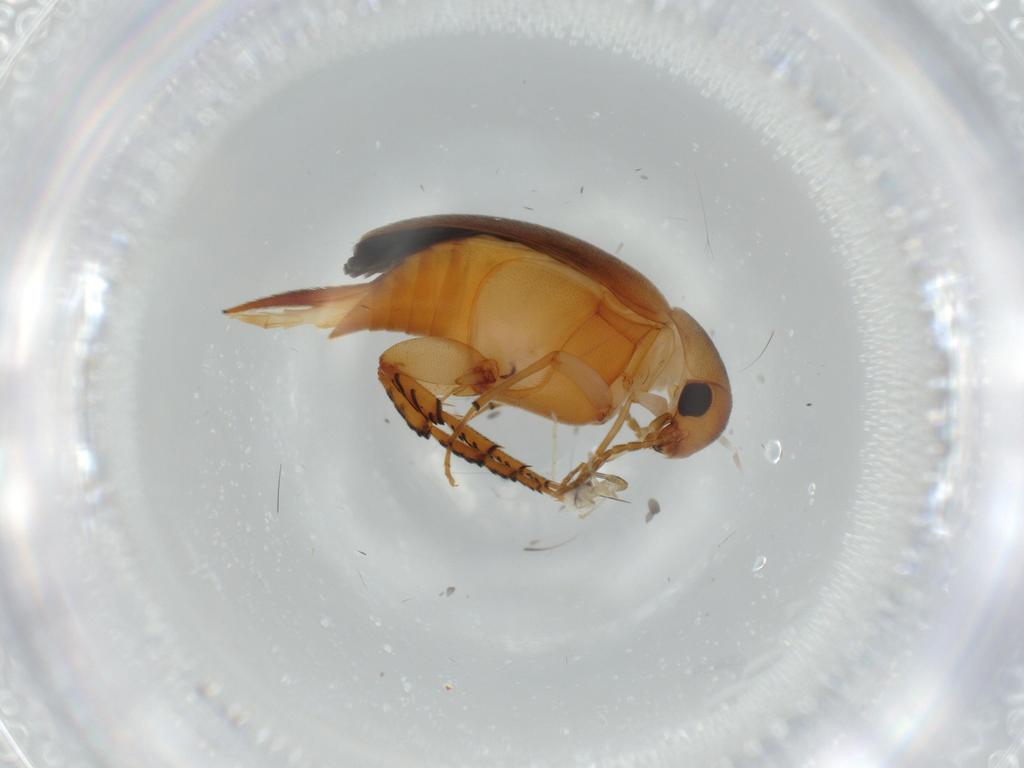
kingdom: Animalia
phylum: Arthropoda
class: Insecta
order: Coleoptera
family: Mordellidae
